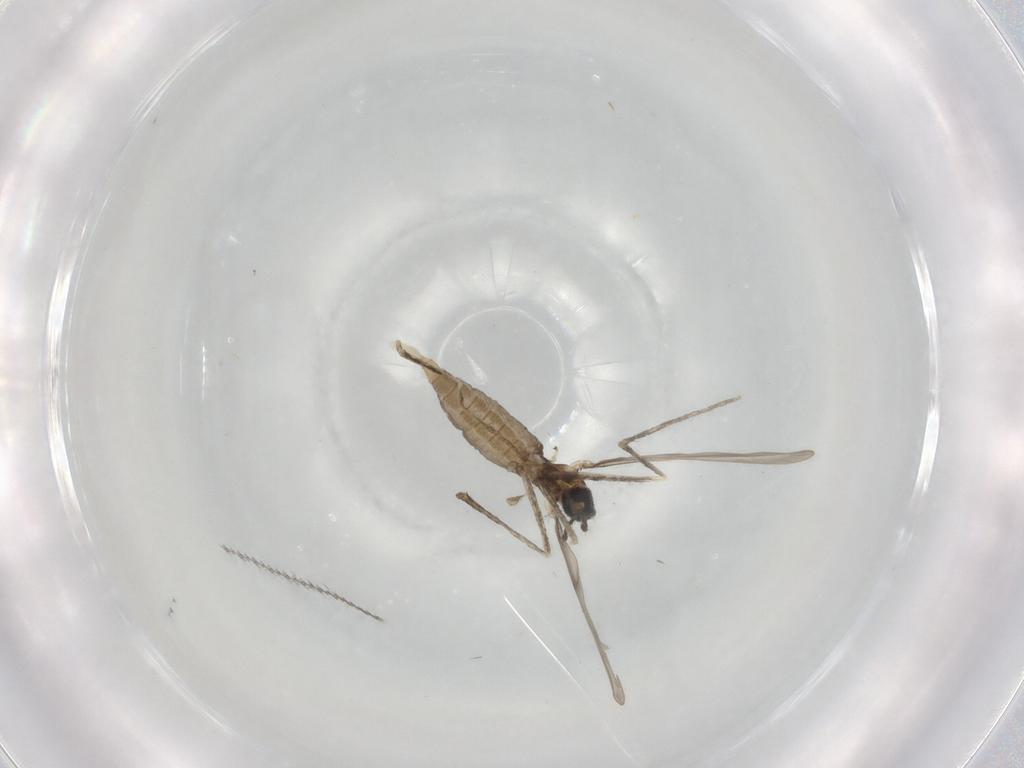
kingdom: Animalia
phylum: Arthropoda
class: Insecta
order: Diptera
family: Cecidomyiidae
